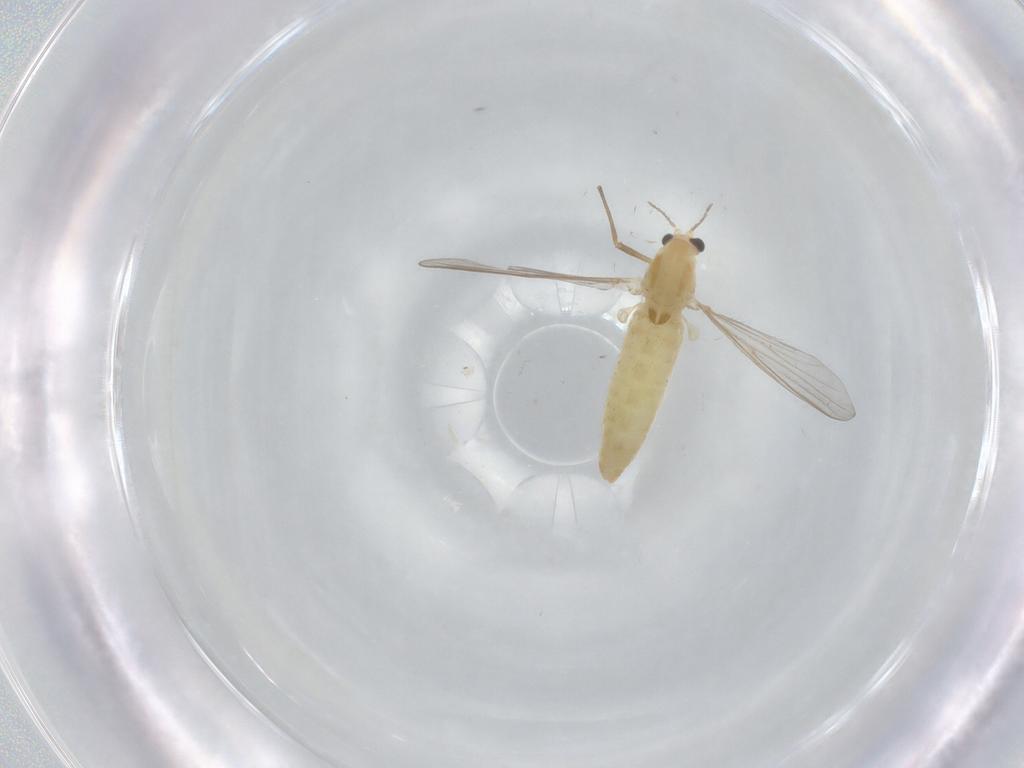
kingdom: Animalia
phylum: Arthropoda
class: Insecta
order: Diptera
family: Chironomidae
